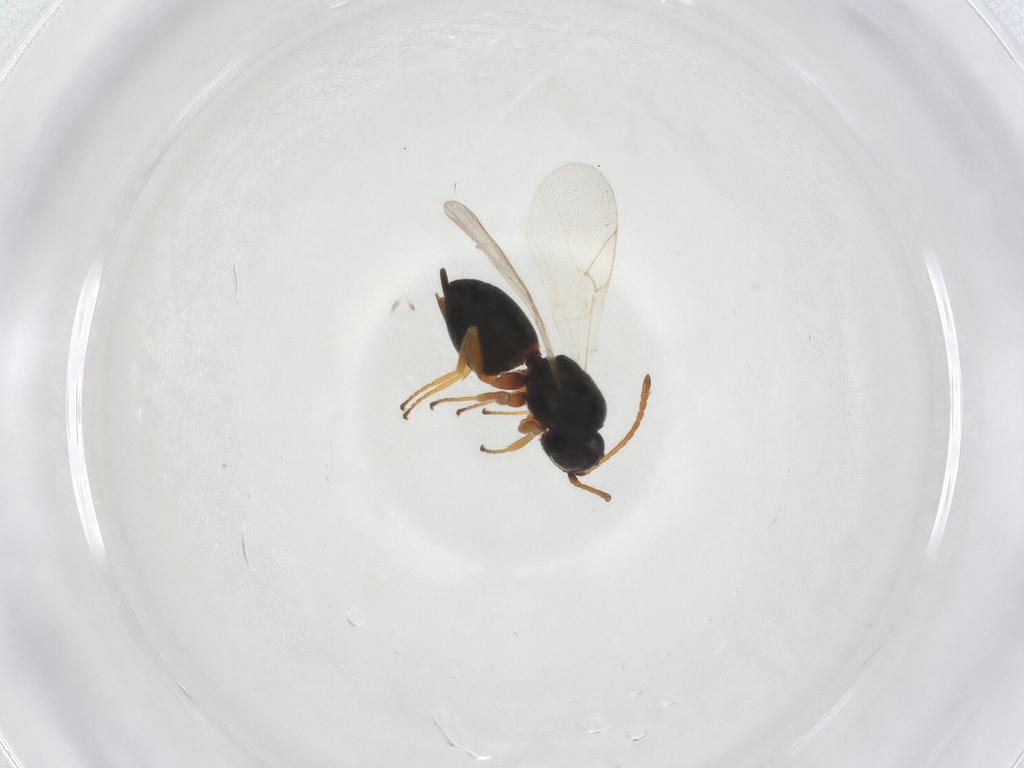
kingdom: Animalia
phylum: Arthropoda
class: Insecta
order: Hymenoptera
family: Cynipidae
